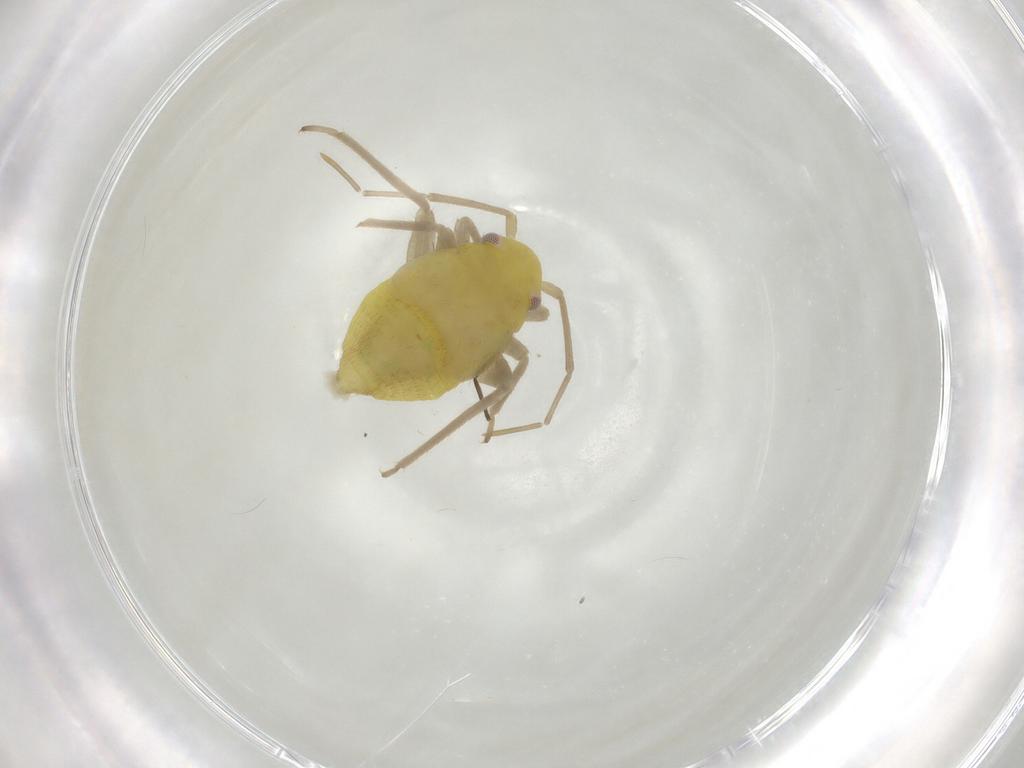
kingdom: Animalia
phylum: Arthropoda
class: Insecta
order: Hemiptera
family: Miridae
